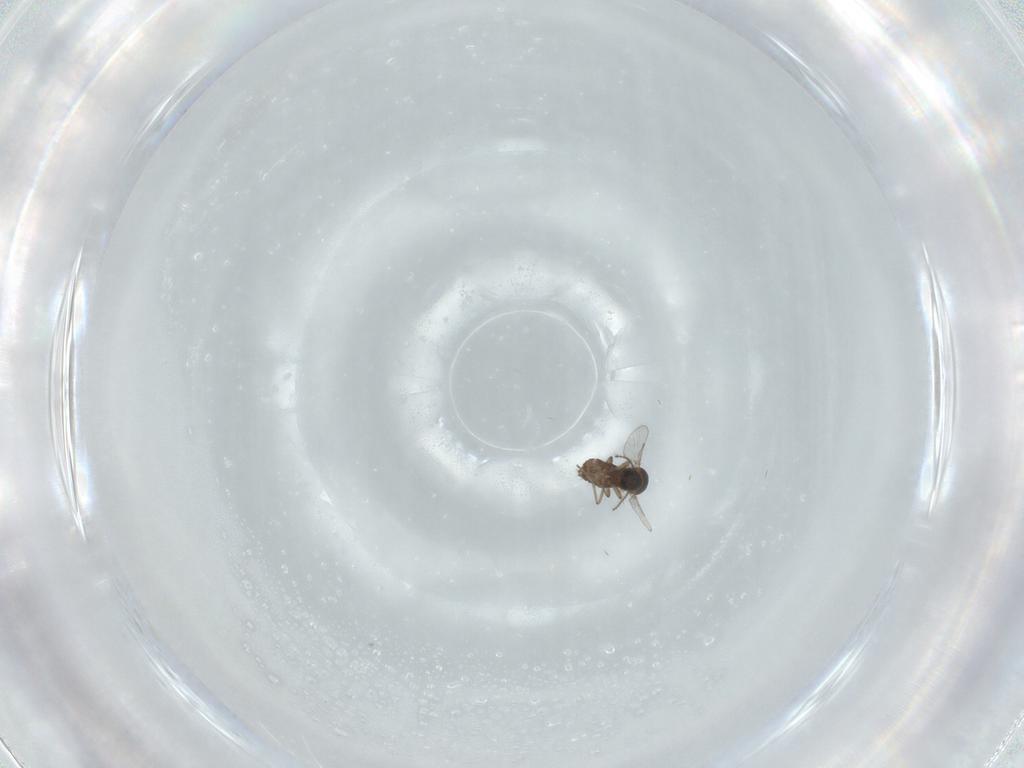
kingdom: Animalia
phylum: Arthropoda
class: Insecta
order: Diptera
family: Ceratopogonidae
